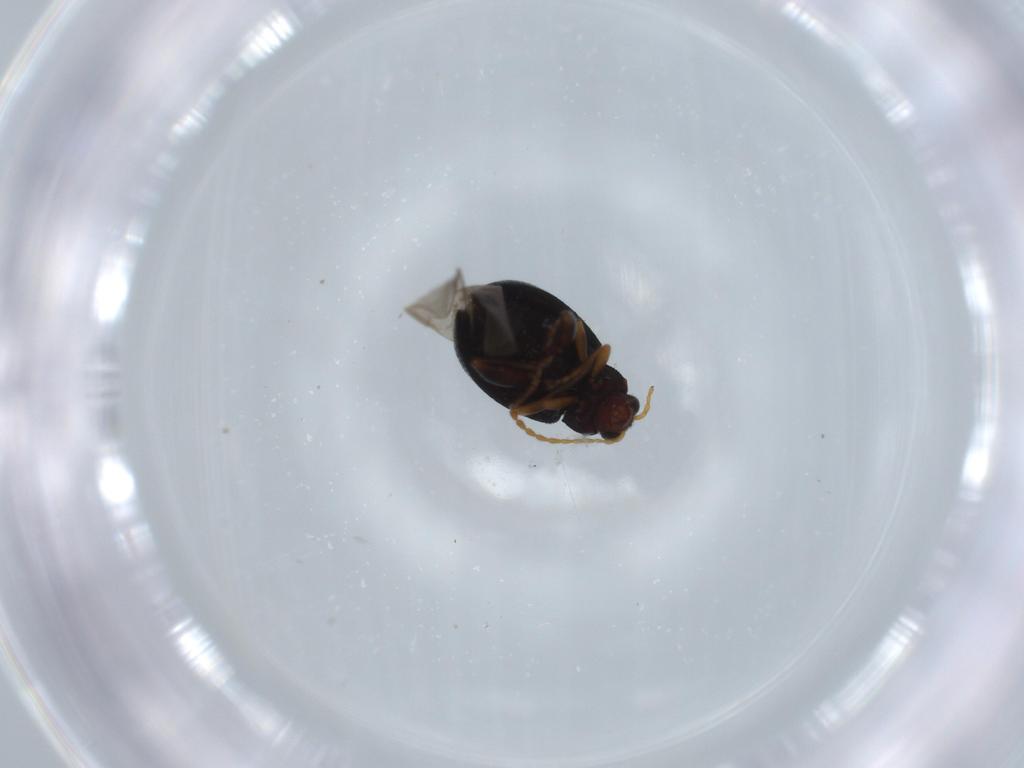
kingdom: Animalia
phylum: Arthropoda
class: Insecta
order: Coleoptera
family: Chrysomelidae
